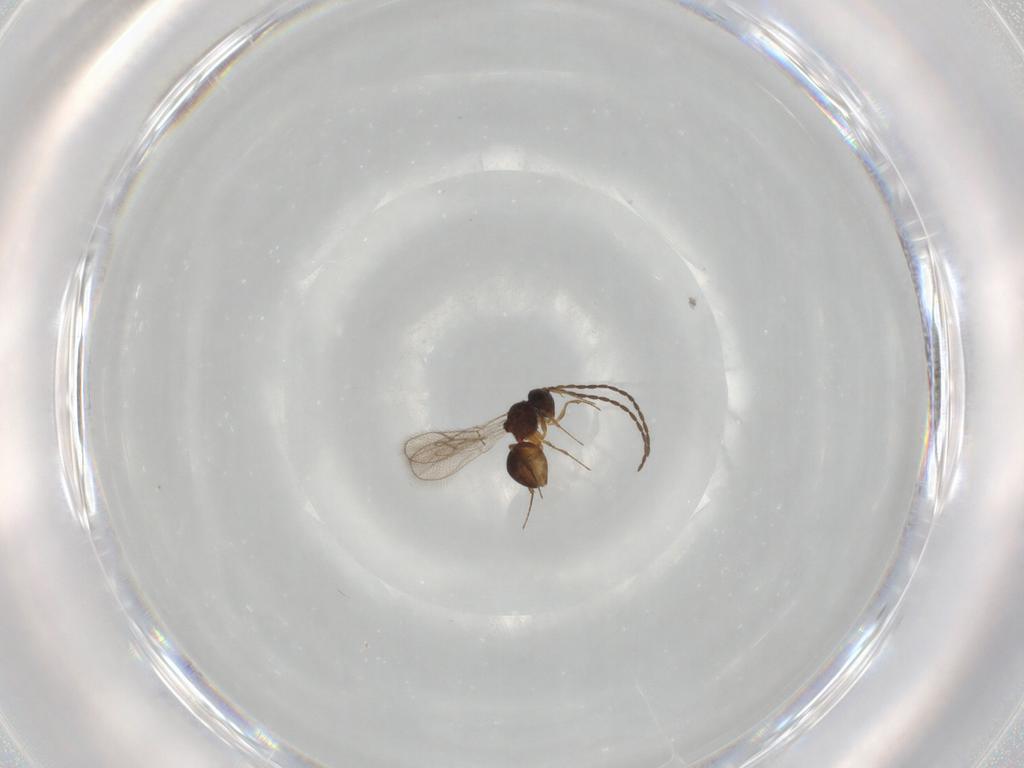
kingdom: Animalia
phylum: Arthropoda
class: Insecta
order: Hymenoptera
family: Figitidae
